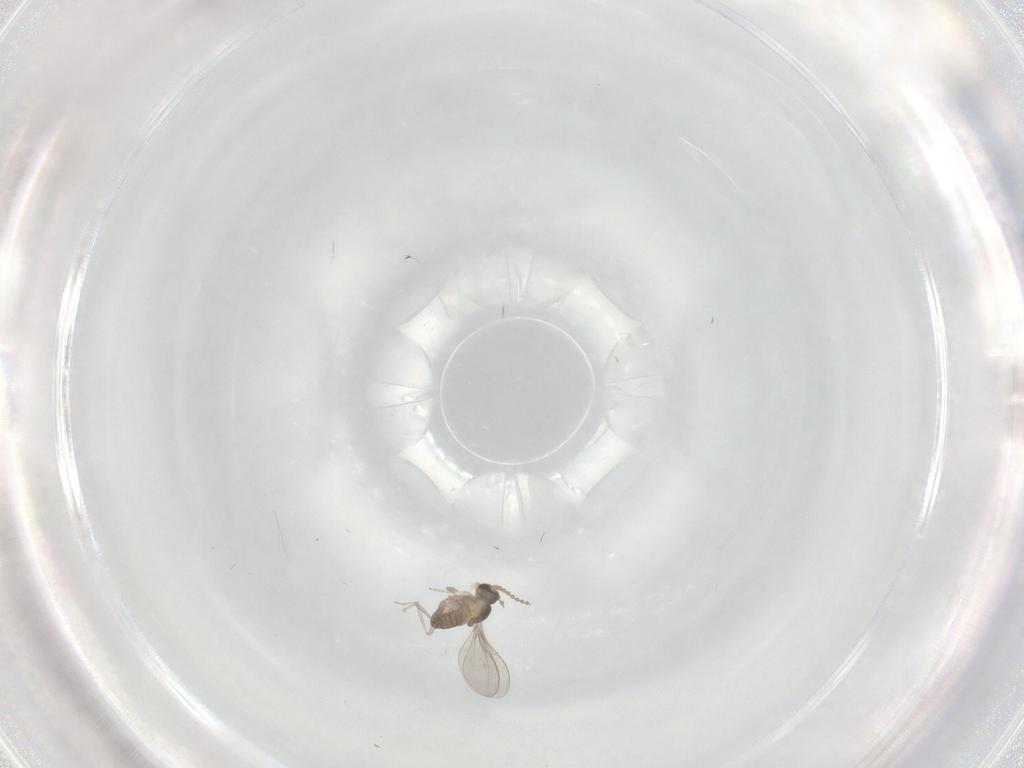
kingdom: Animalia
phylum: Arthropoda
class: Insecta
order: Diptera
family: Cecidomyiidae
